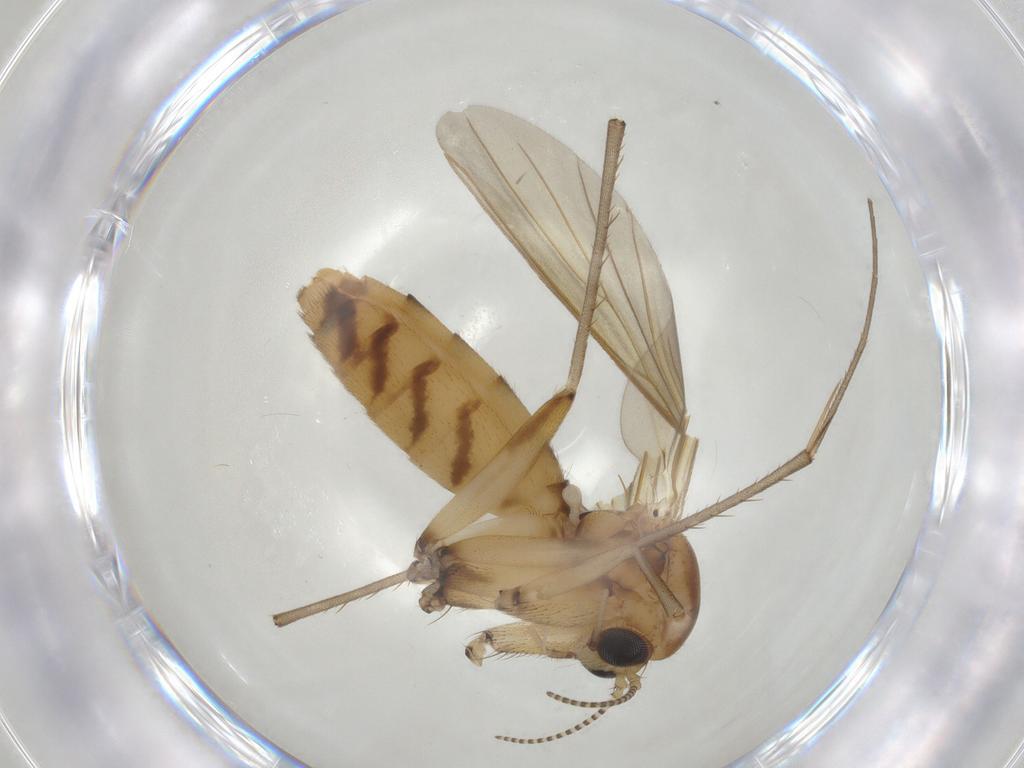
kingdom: Animalia
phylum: Arthropoda
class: Insecta
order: Diptera
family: Mycetophilidae
